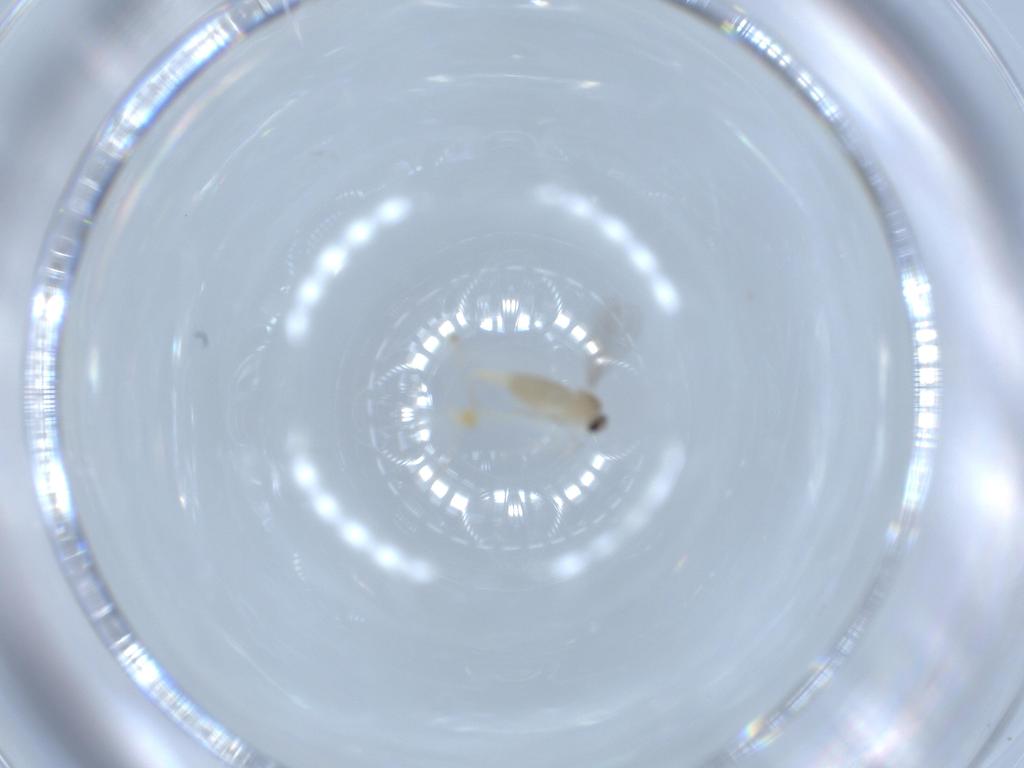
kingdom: Animalia
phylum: Arthropoda
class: Insecta
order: Diptera
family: Cecidomyiidae
